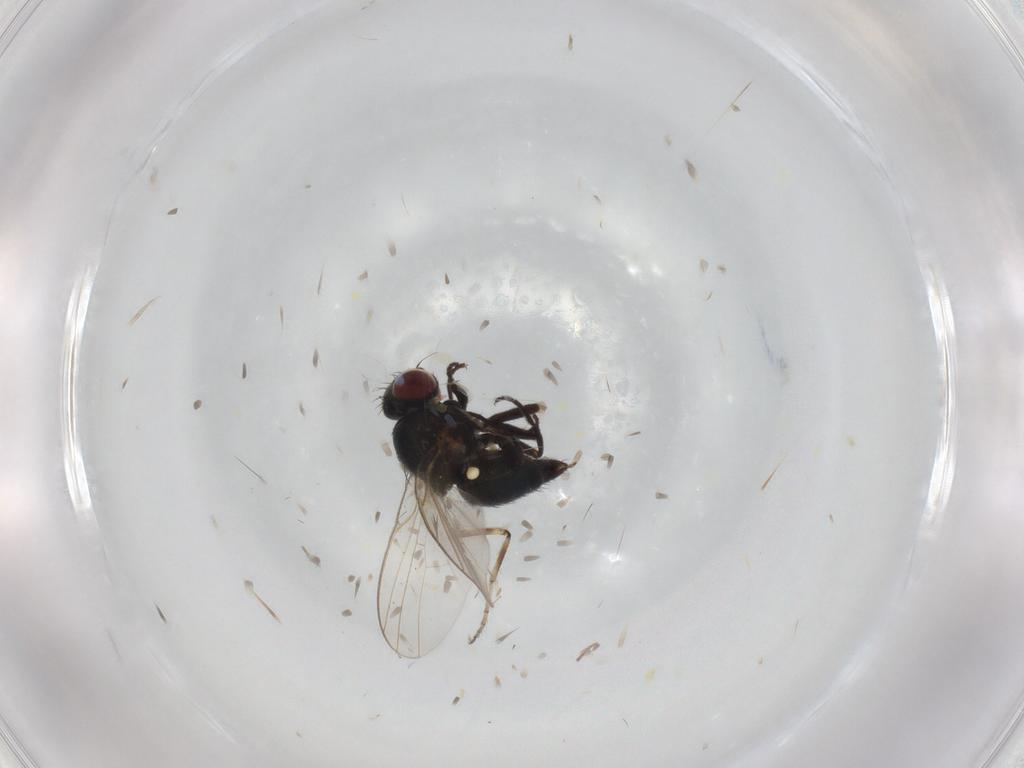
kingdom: Animalia
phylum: Arthropoda
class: Insecta
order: Diptera
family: Agromyzidae
